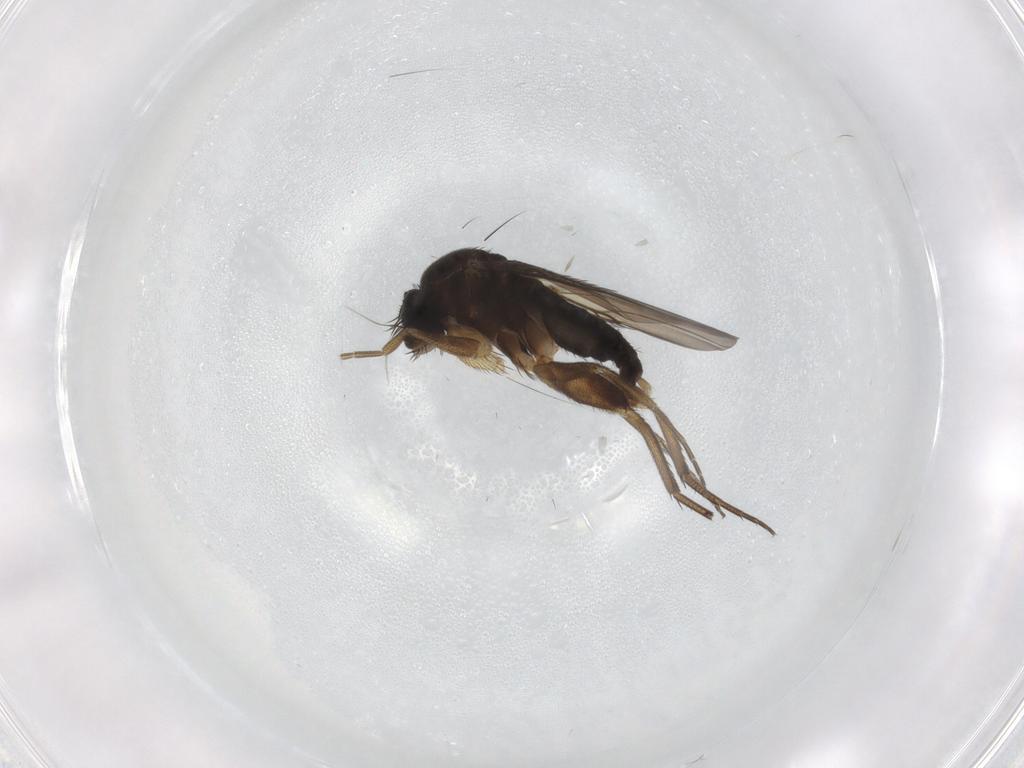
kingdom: Animalia
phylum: Arthropoda
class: Insecta
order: Diptera
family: Phoridae
